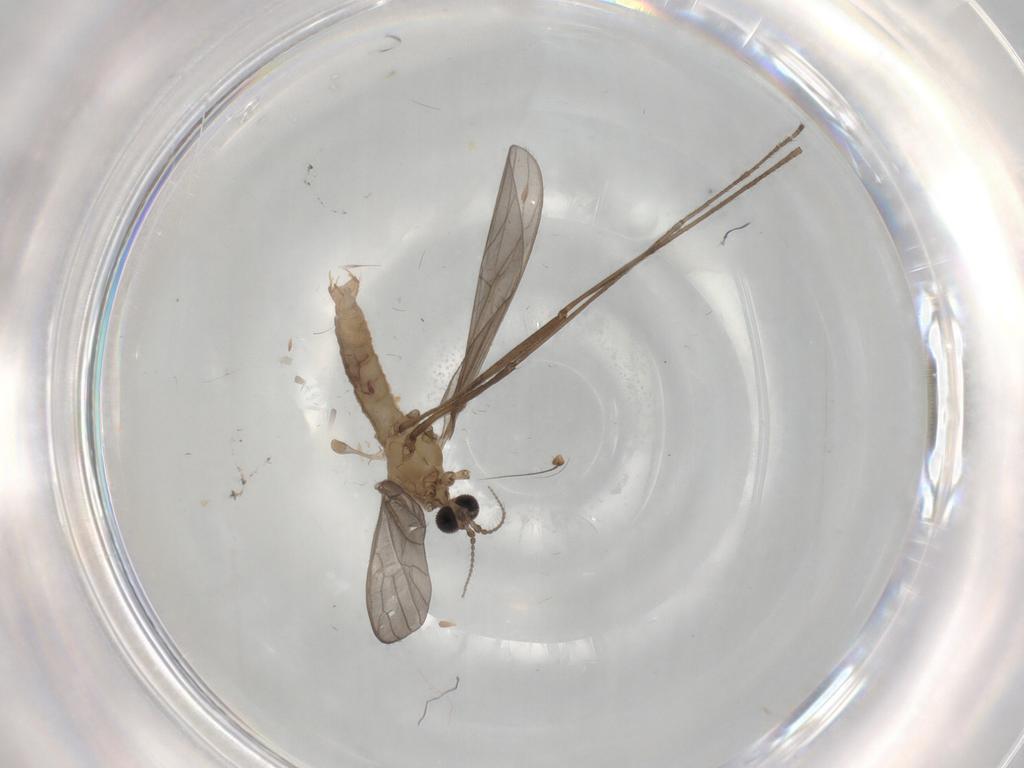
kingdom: Animalia
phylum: Arthropoda
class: Insecta
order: Diptera
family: Limoniidae
